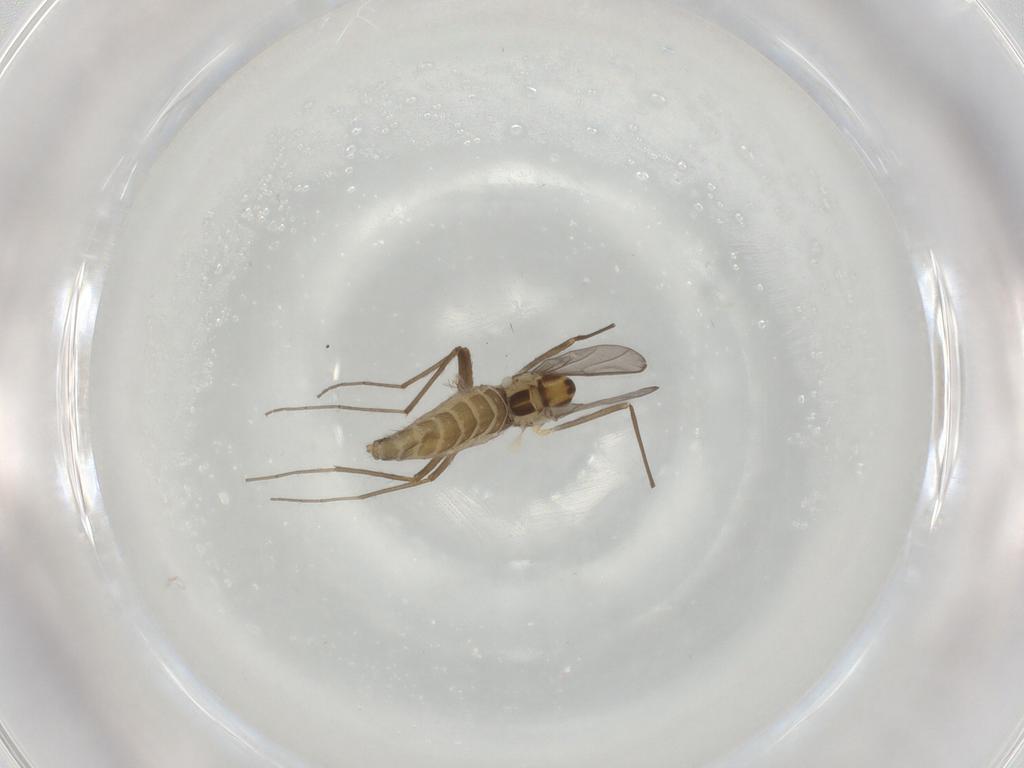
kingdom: Animalia
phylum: Arthropoda
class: Insecta
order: Diptera
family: Chironomidae
